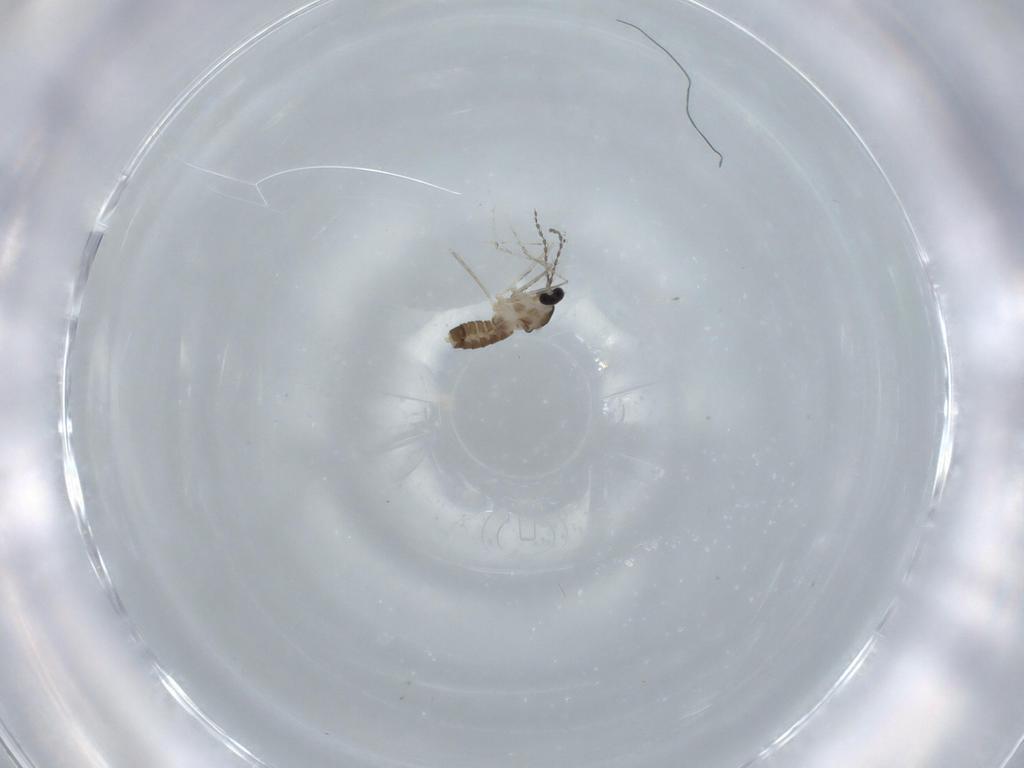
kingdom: Animalia
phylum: Arthropoda
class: Insecta
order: Diptera
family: Cecidomyiidae
